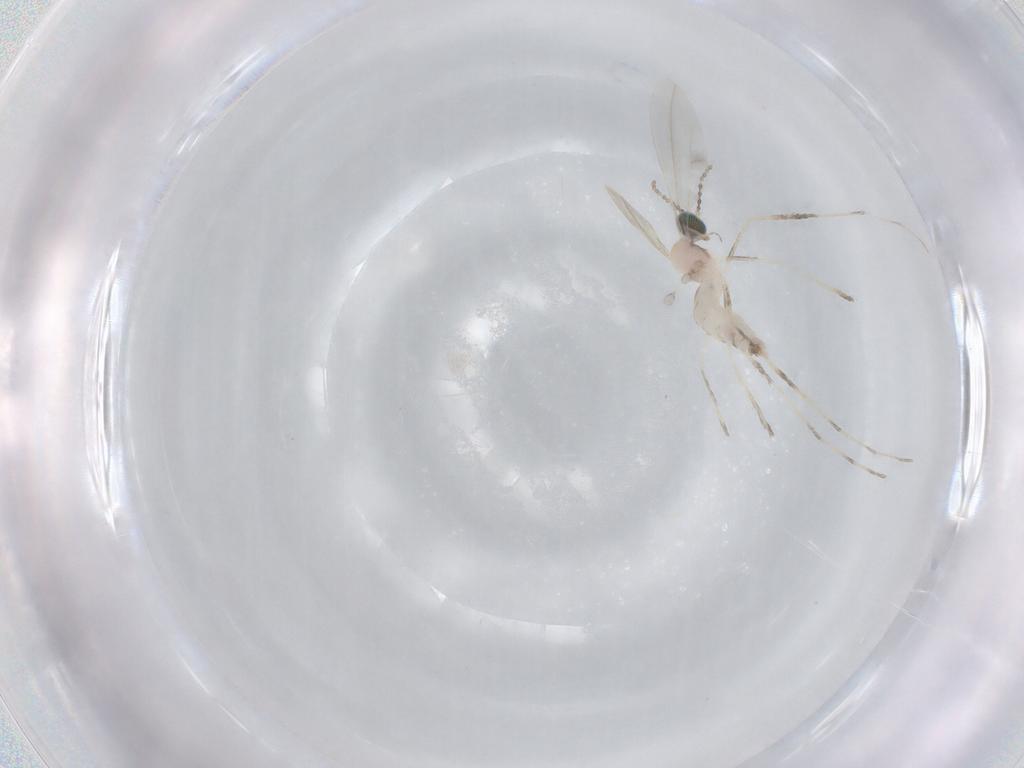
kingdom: Animalia
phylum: Arthropoda
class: Insecta
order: Diptera
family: Cecidomyiidae
